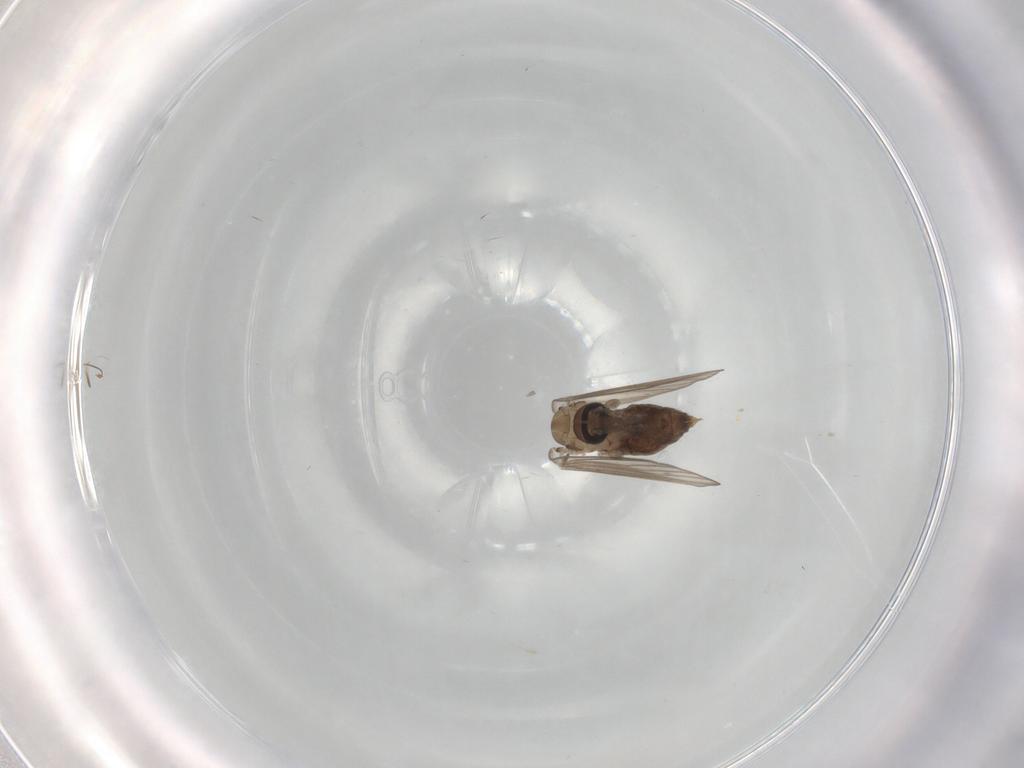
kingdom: Animalia
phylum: Arthropoda
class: Insecta
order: Diptera
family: Psychodidae
